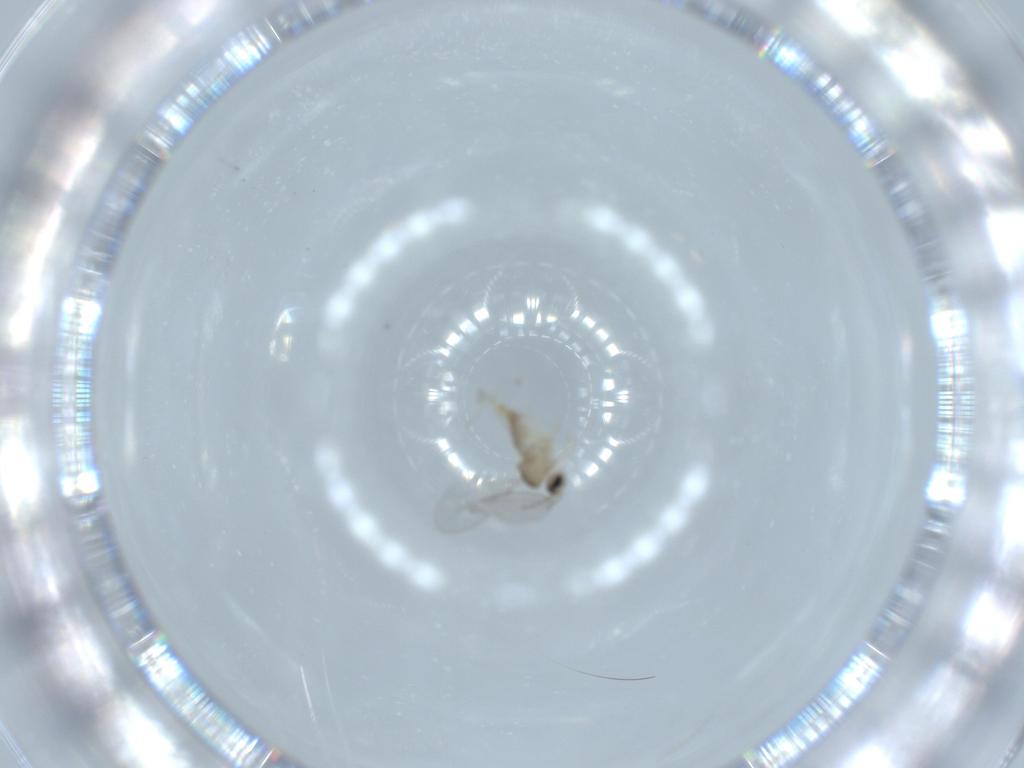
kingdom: Animalia
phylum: Arthropoda
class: Insecta
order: Diptera
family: Cecidomyiidae
